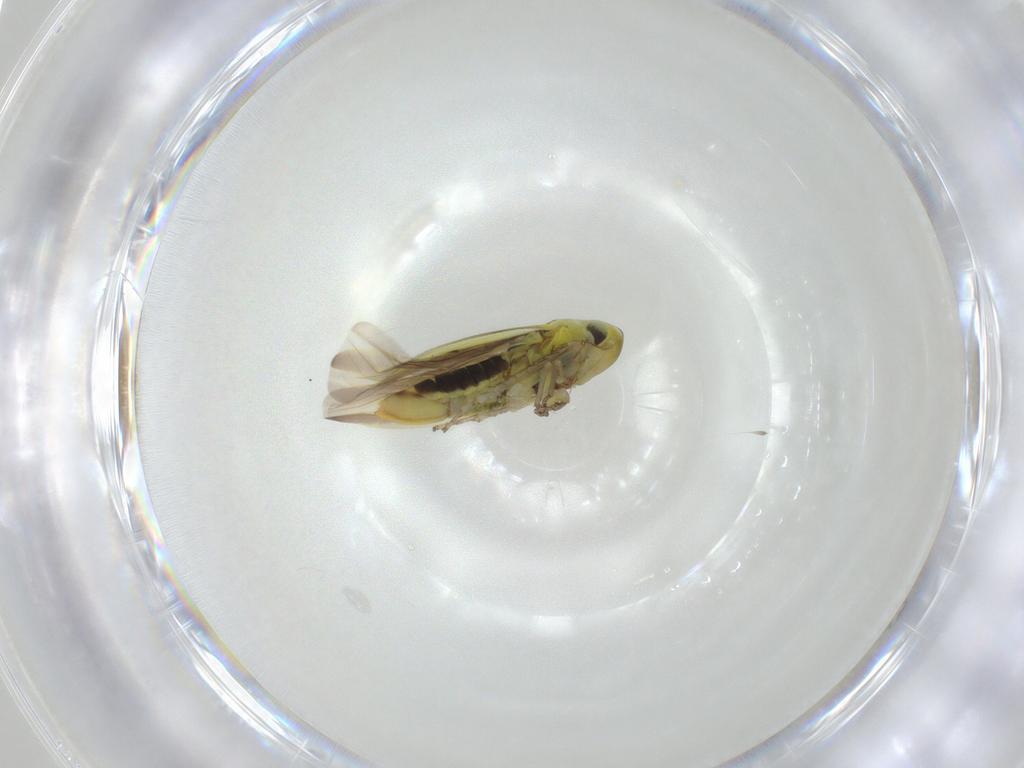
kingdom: Animalia
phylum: Arthropoda
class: Insecta
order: Hemiptera
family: Cicadellidae
